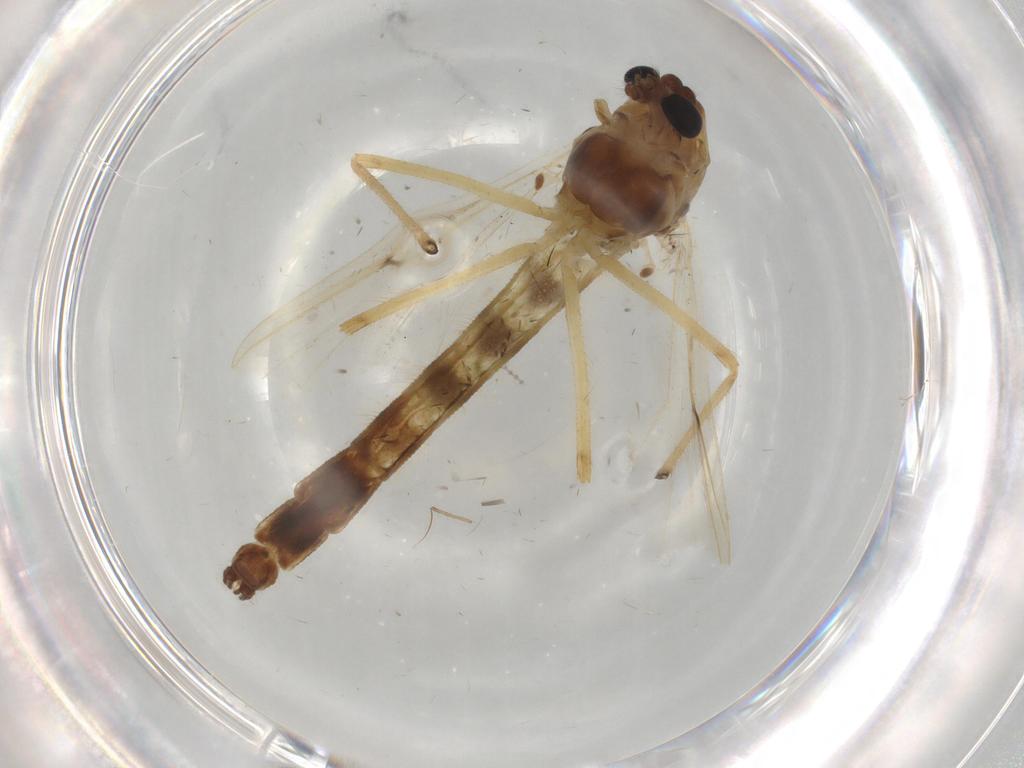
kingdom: Animalia
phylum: Arthropoda
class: Insecta
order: Diptera
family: Chironomidae
